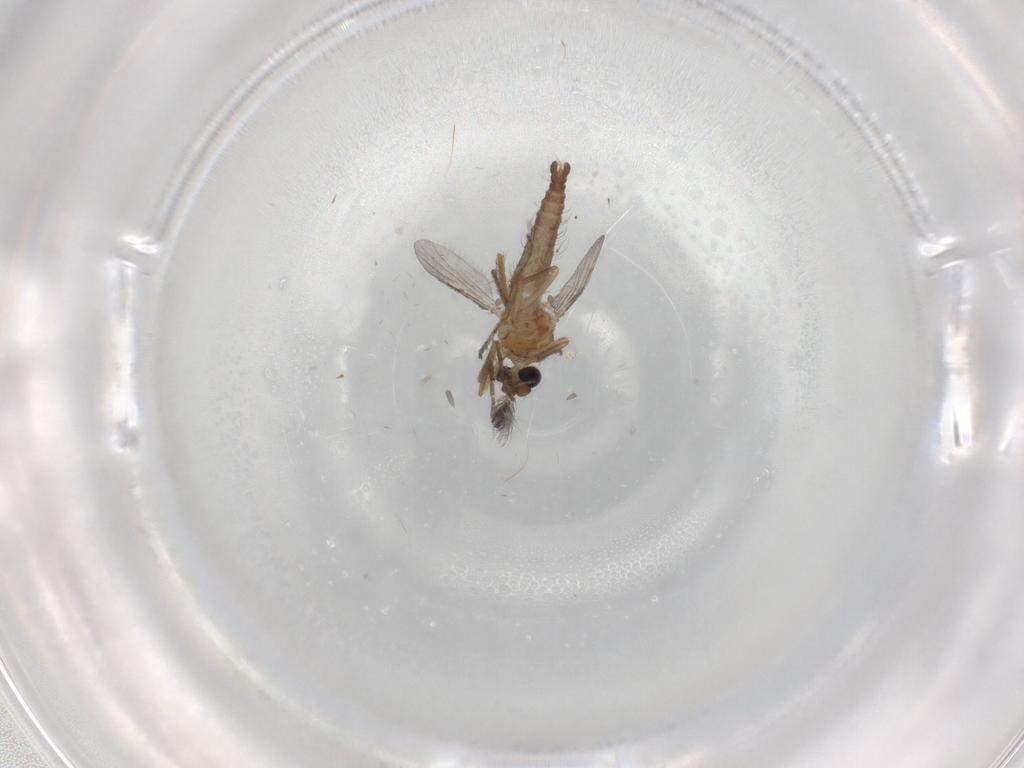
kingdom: Animalia
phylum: Arthropoda
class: Insecta
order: Diptera
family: Ceratopogonidae
